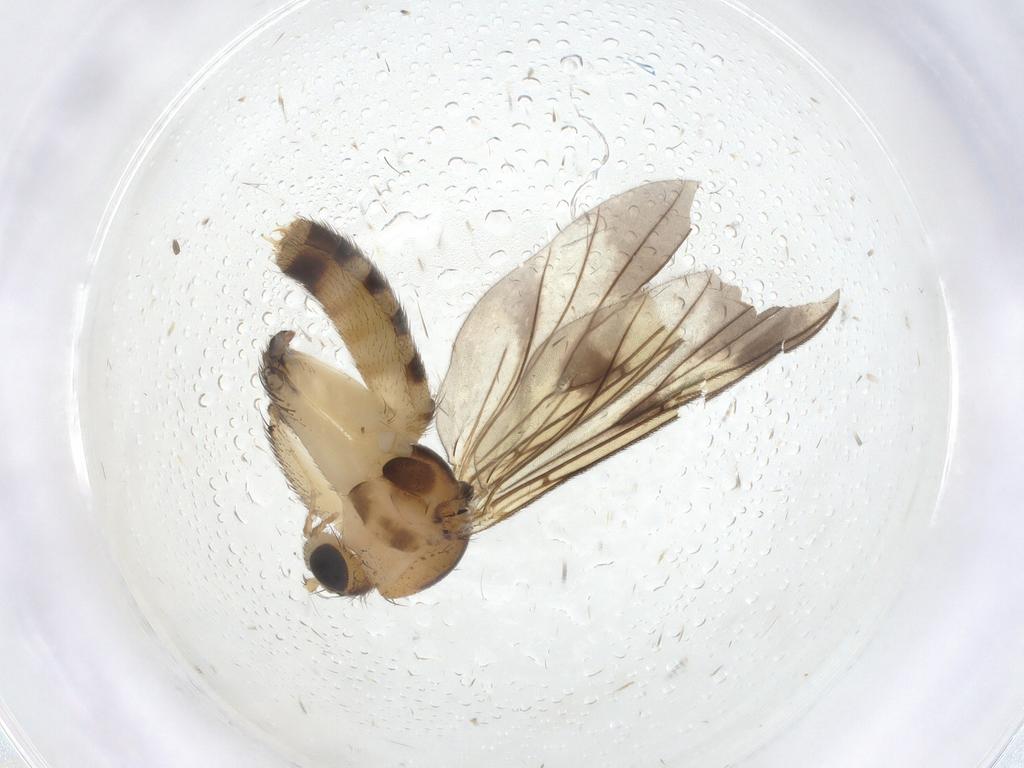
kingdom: Animalia
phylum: Arthropoda
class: Insecta
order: Diptera
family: Mycetophilidae
